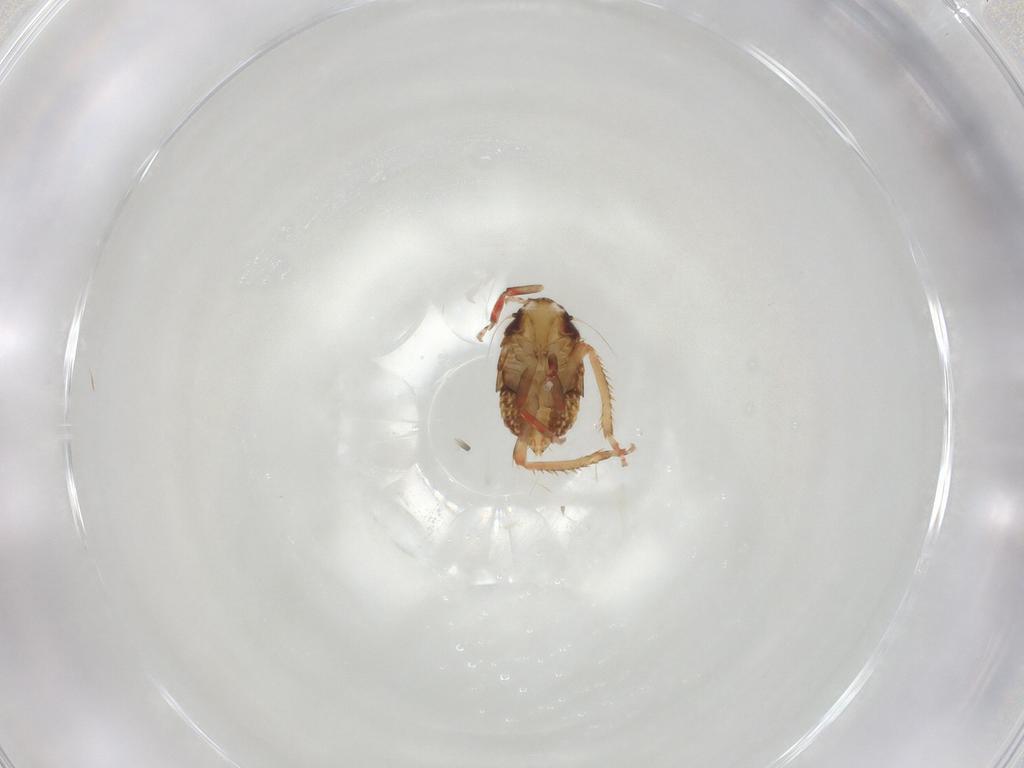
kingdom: Animalia
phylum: Arthropoda
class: Insecta
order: Hemiptera
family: Cicadellidae
